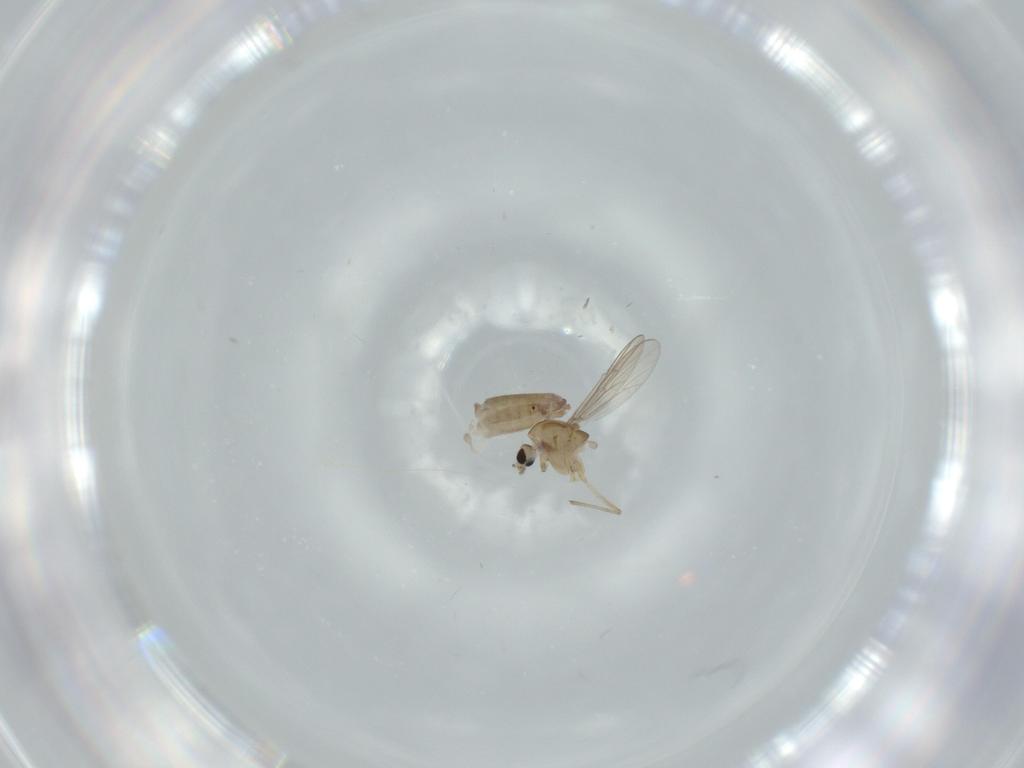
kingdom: Animalia
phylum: Arthropoda
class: Insecta
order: Diptera
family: Chironomidae
